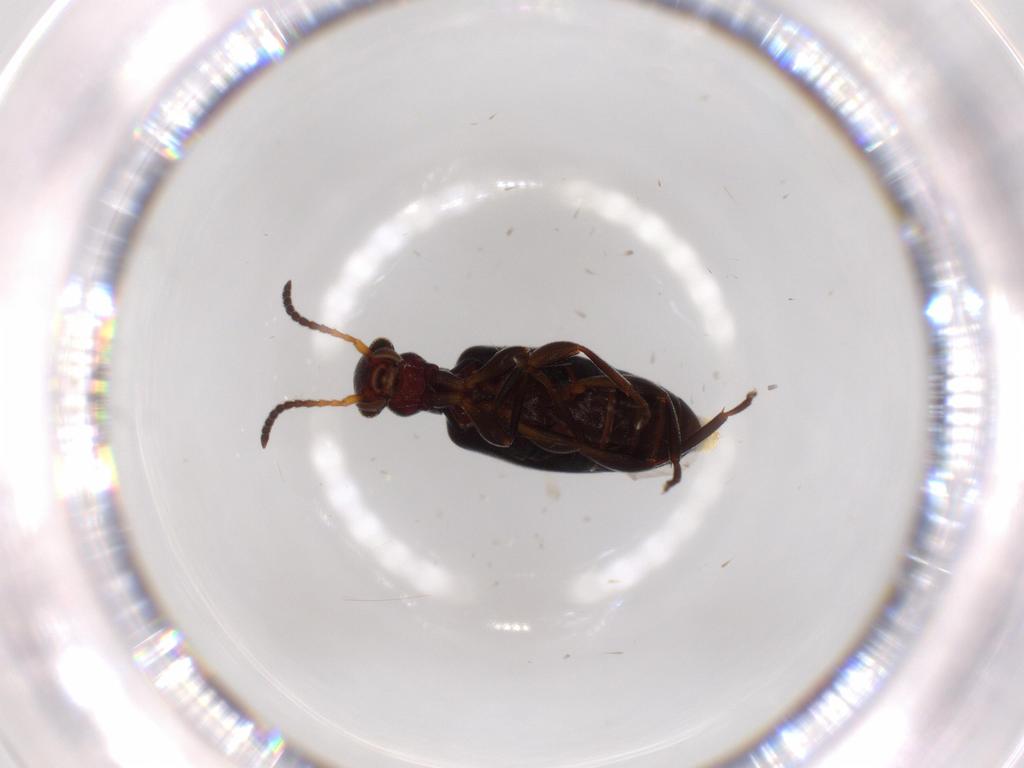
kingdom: Animalia
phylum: Arthropoda
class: Insecta
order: Coleoptera
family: Anthicidae
